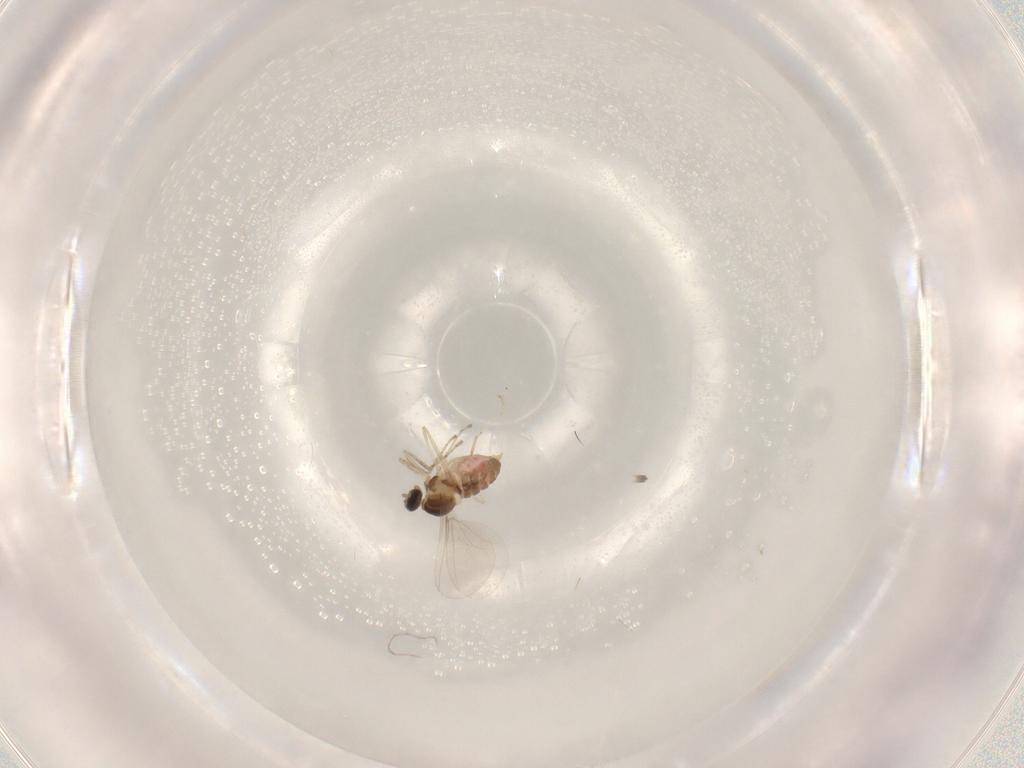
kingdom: Animalia
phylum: Arthropoda
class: Insecta
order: Diptera
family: Cecidomyiidae
